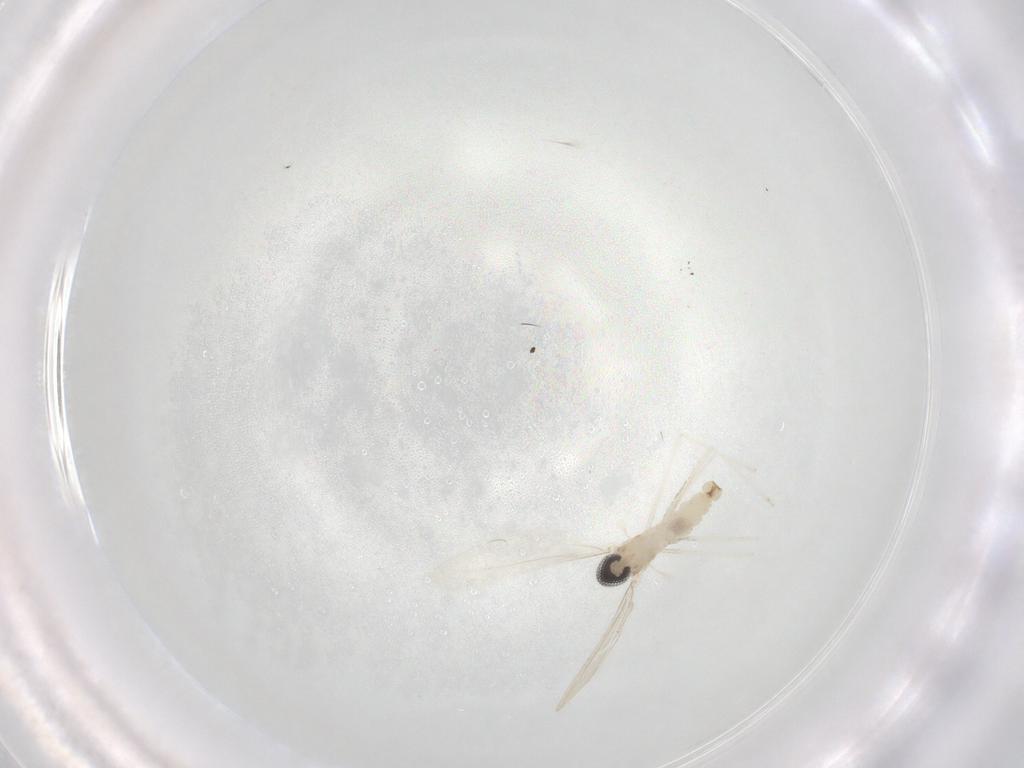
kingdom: Animalia
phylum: Arthropoda
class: Insecta
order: Diptera
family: Cecidomyiidae
